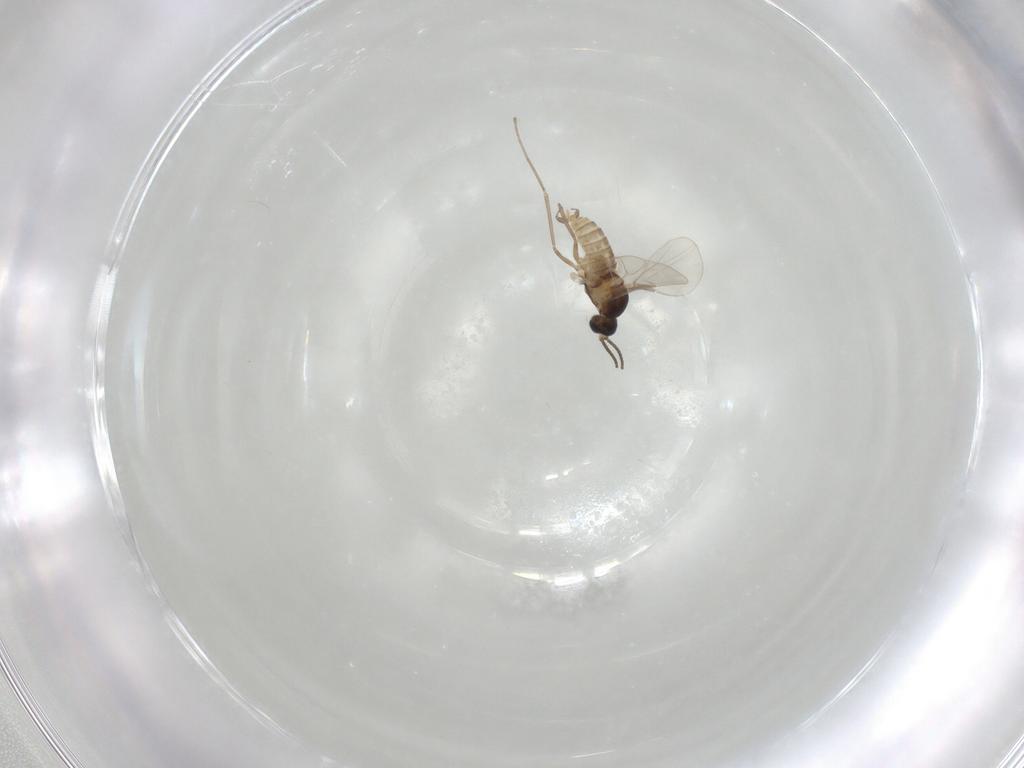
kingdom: Animalia
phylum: Arthropoda
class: Insecta
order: Diptera
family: Cecidomyiidae
